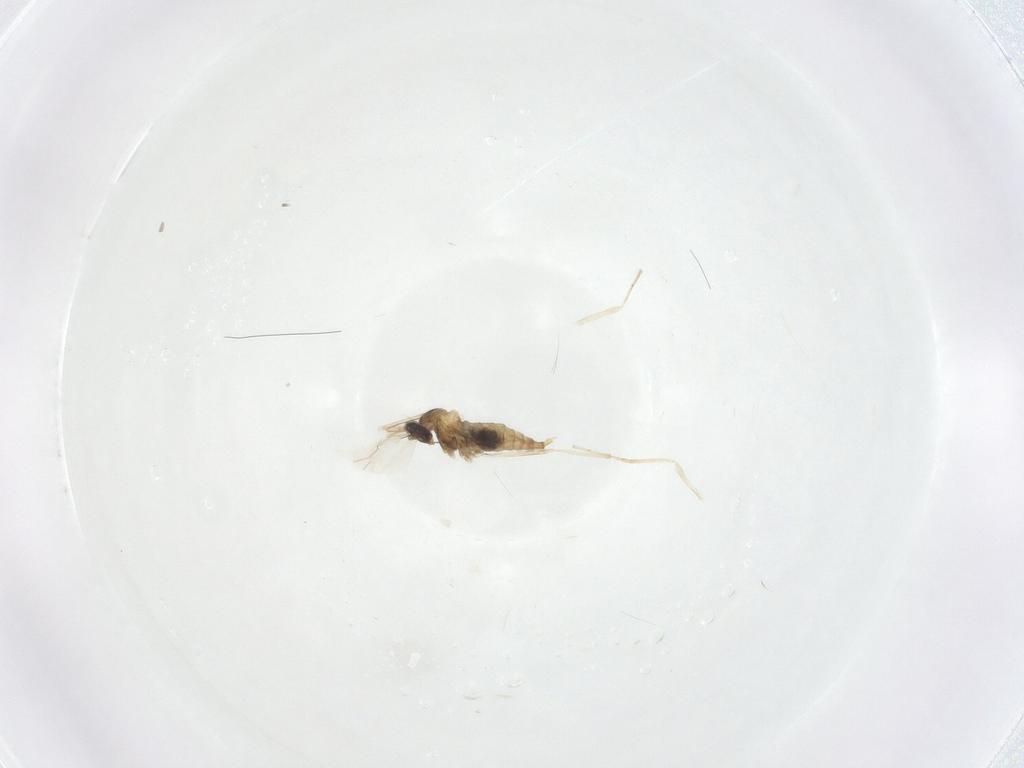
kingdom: Animalia
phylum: Arthropoda
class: Insecta
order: Diptera
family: Cecidomyiidae
